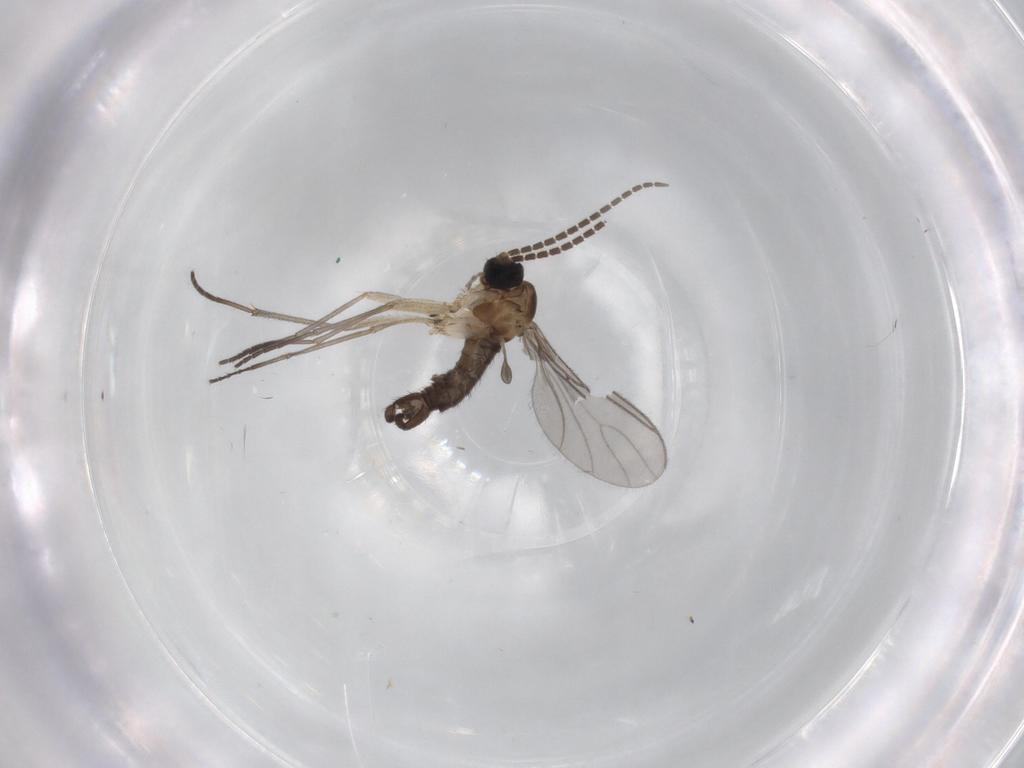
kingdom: Animalia
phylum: Arthropoda
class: Insecta
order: Diptera
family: Sciaridae
